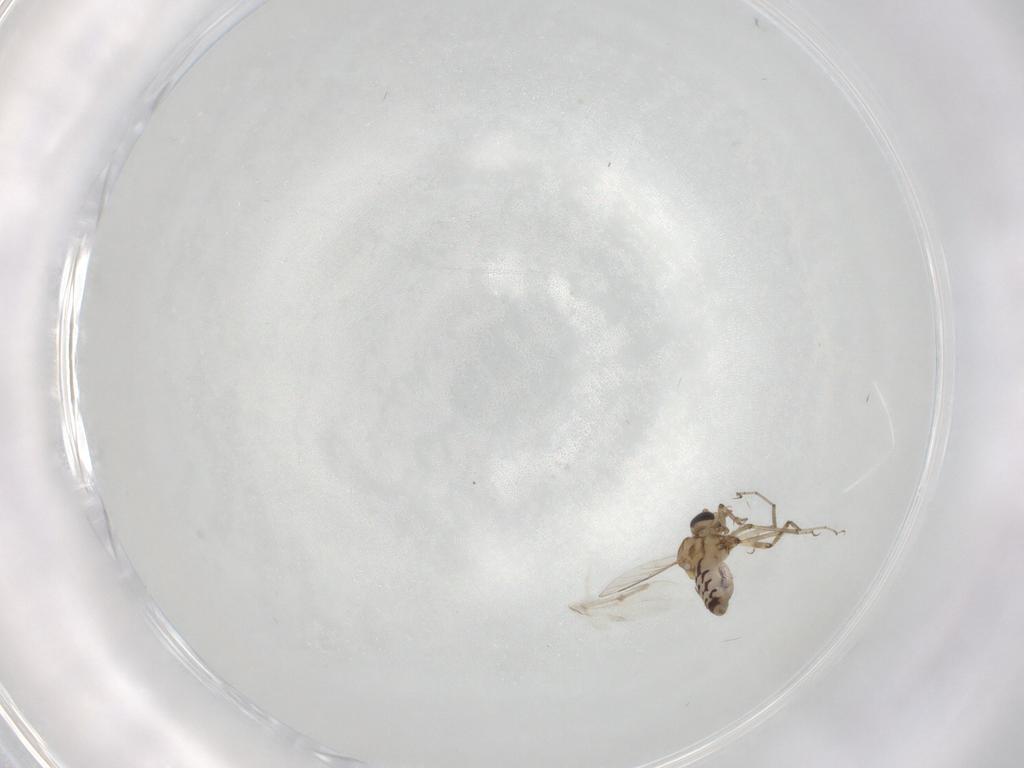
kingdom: Animalia
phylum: Arthropoda
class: Insecta
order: Diptera
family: Ceratopogonidae
